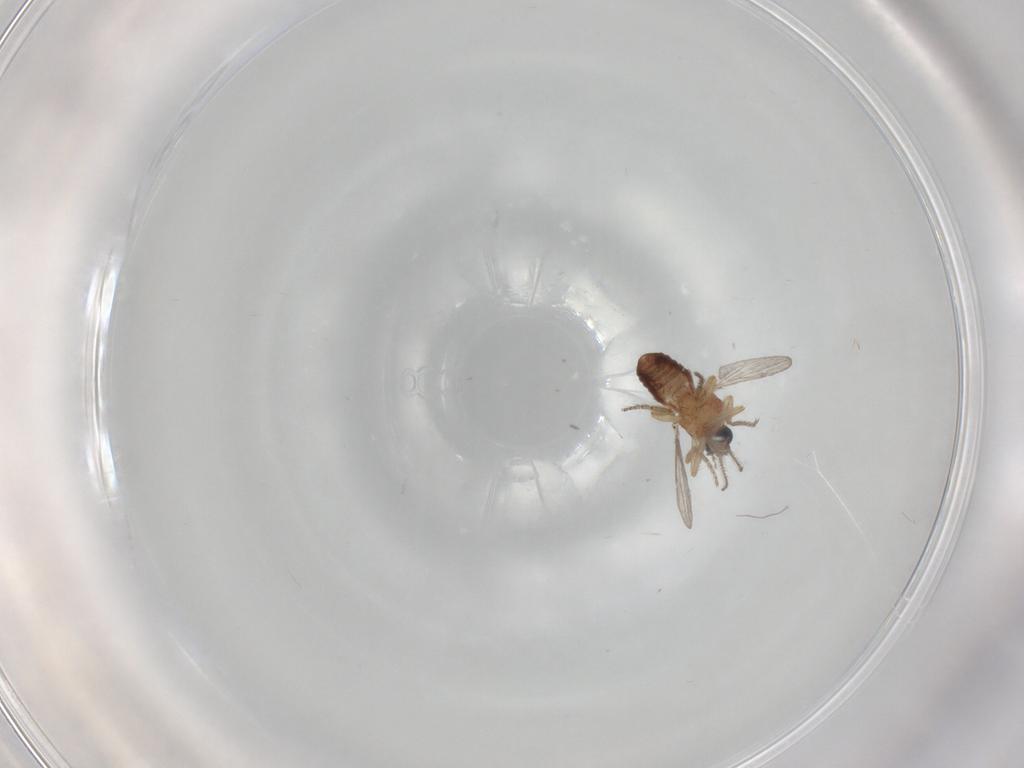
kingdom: Animalia
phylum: Arthropoda
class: Insecta
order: Diptera
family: Ceratopogonidae
